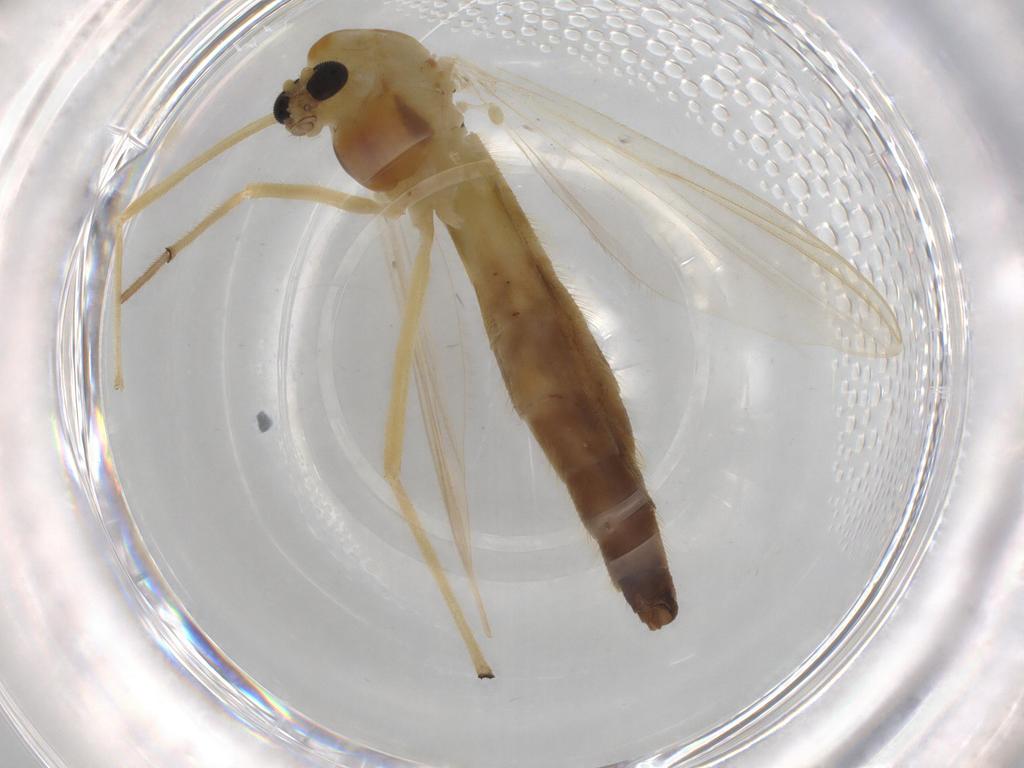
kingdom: Animalia
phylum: Arthropoda
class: Insecta
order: Diptera
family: Chironomidae
